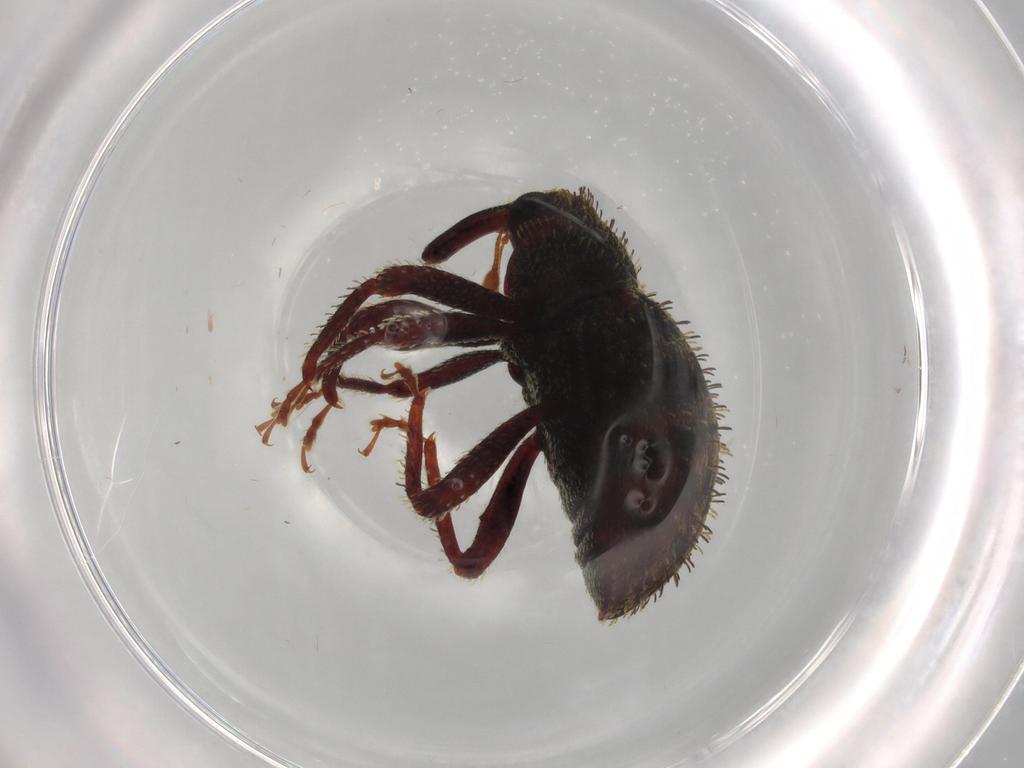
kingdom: Animalia
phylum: Arthropoda
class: Insecta
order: Coleoptera
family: Curculionidae
